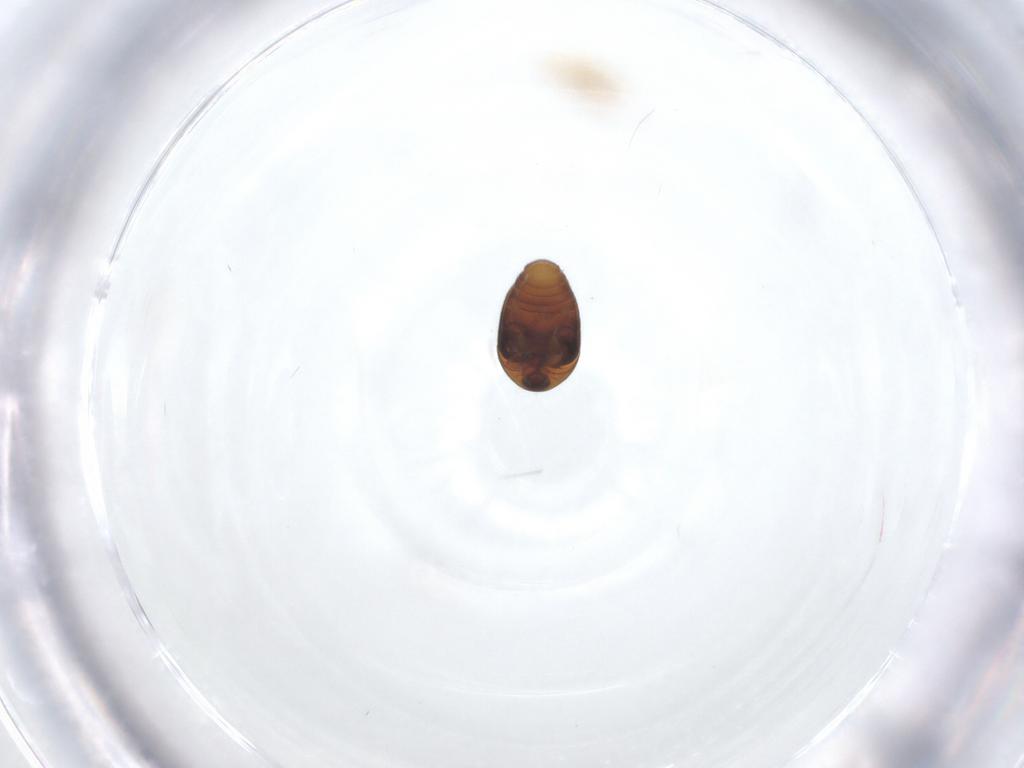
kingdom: Animalia
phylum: Arthropoda
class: Insecta
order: Coleoptera
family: Corylophidae
